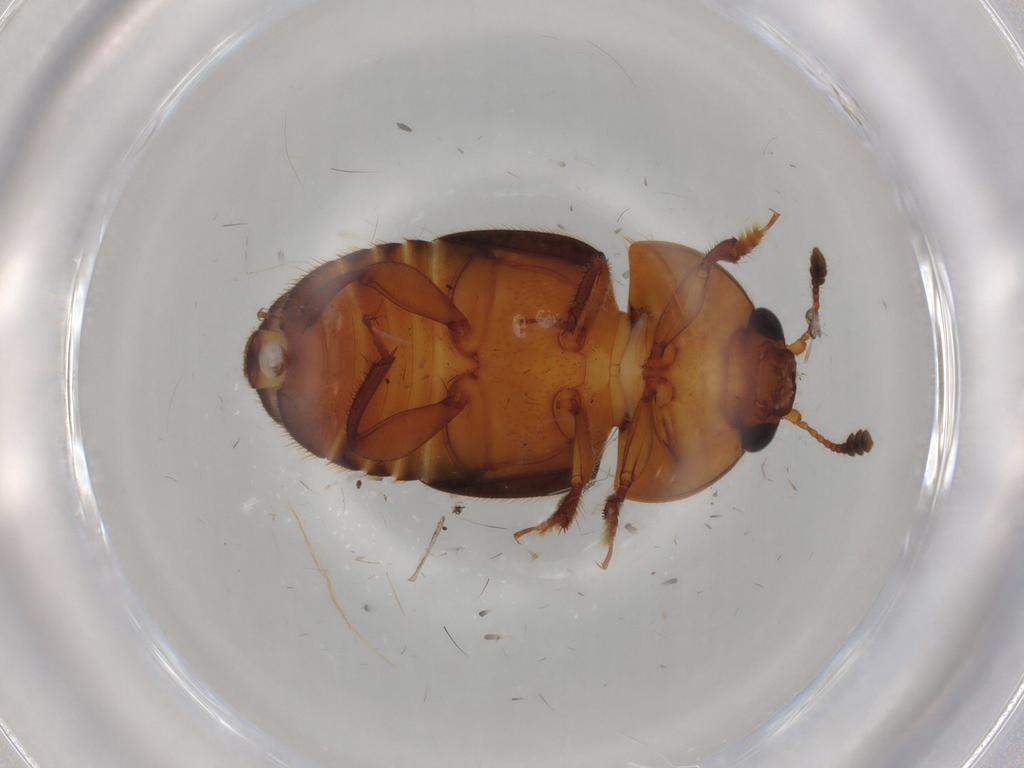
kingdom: Animalia
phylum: Arthropoda
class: Insecta
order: Coleoptera
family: Nitidulidae
